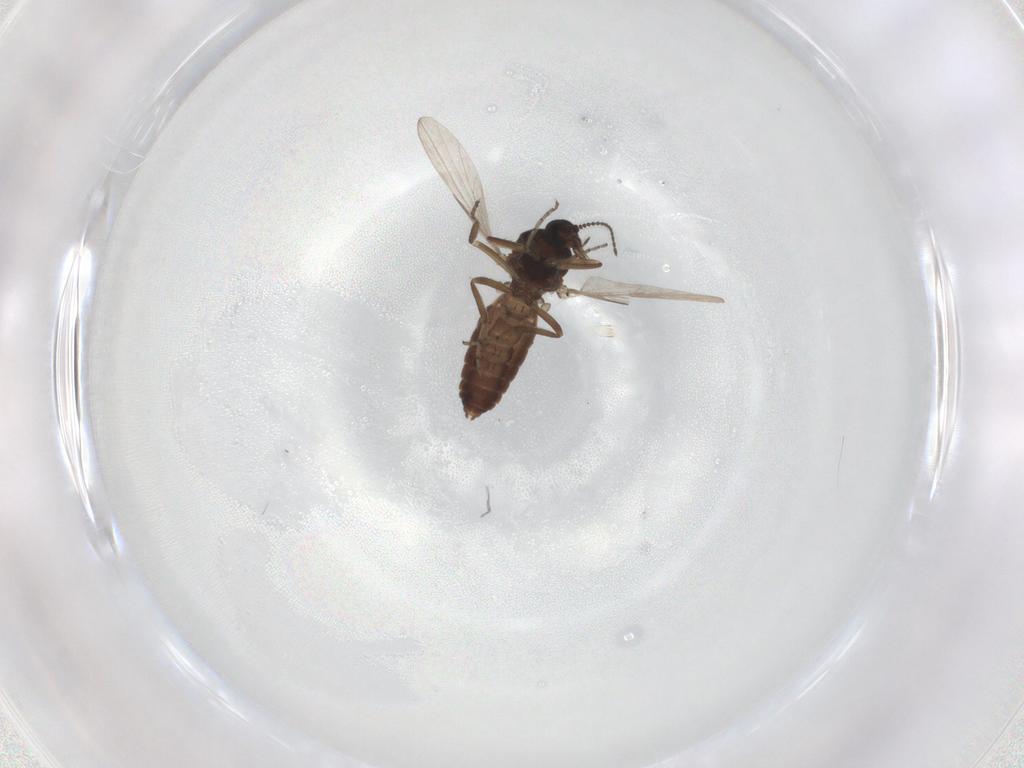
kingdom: Animalia
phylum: Arthropoda
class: Insecta
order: Diptera
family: Ceratopogonidae
